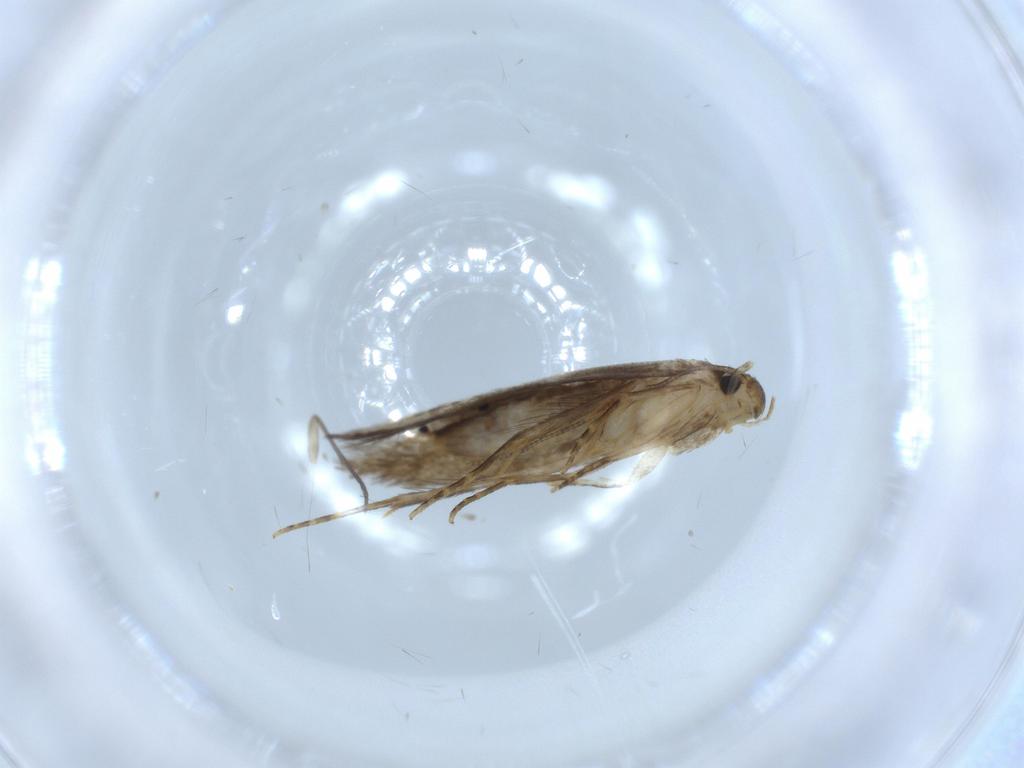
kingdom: Animalia
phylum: Arthropoda
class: Insecta
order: Lepidoptera
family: Tineidae
